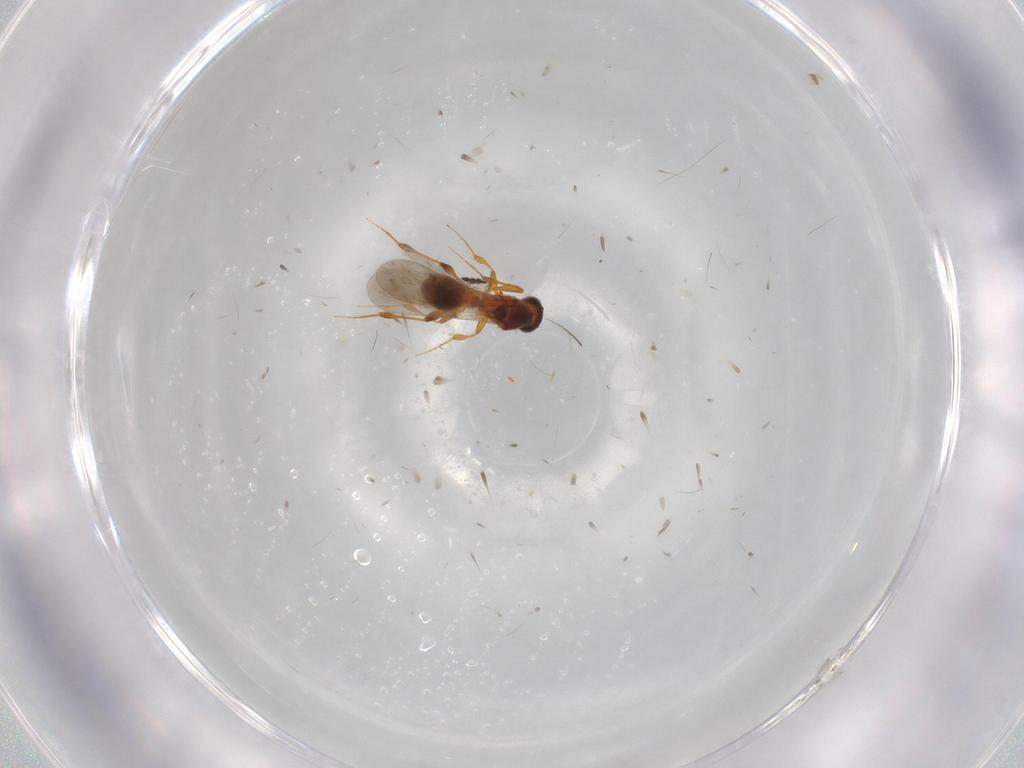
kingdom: Animalia
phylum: Arthropoda
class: Insecta
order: Hymenoptera
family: Platygastridae
